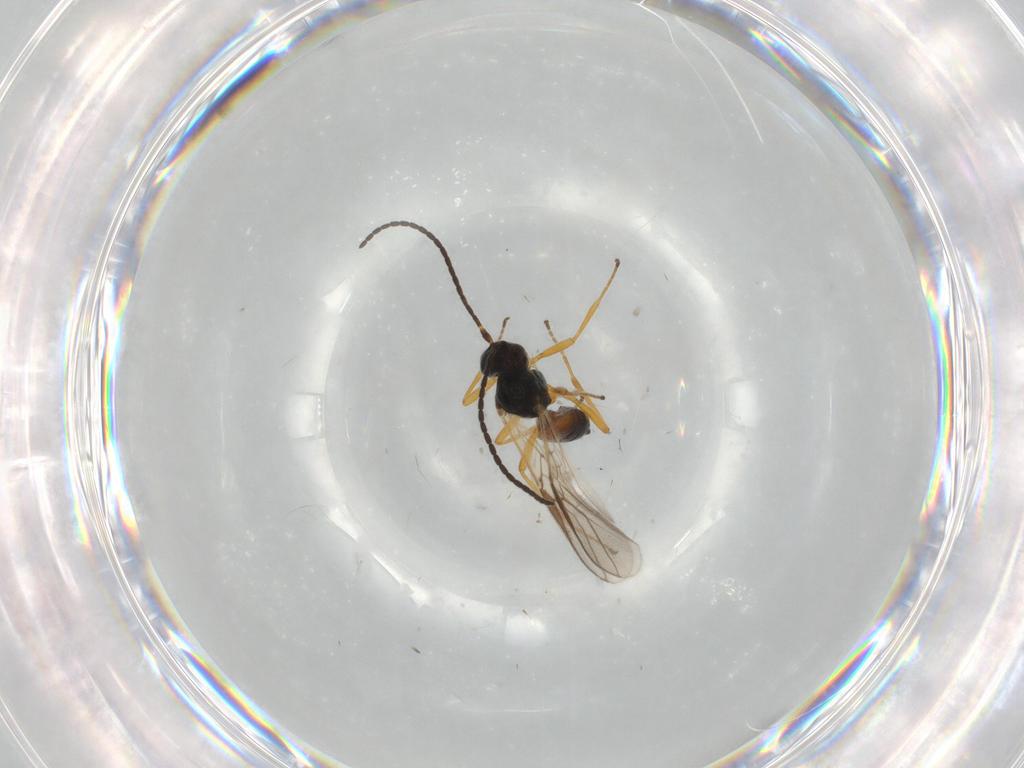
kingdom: Animalia
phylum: Arthropoda
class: Insecta
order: Hymenoptera
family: Braconidae
